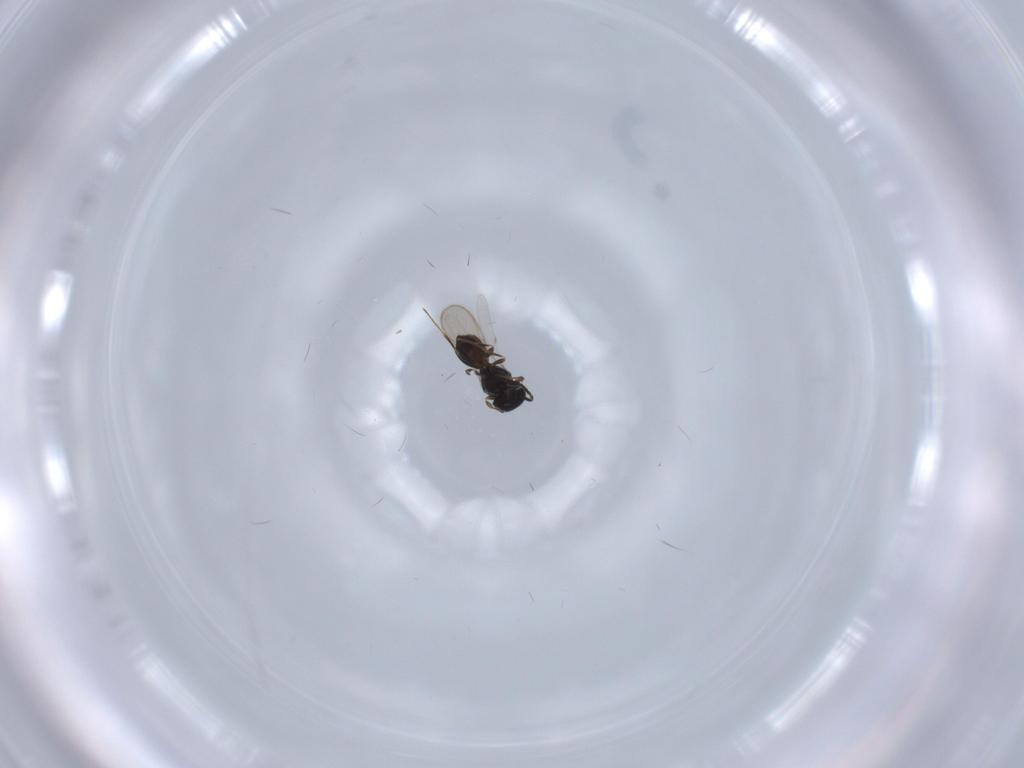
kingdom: Animalia
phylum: Arthropoda
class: Insecta
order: Hymenoptera
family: Scelionidae
